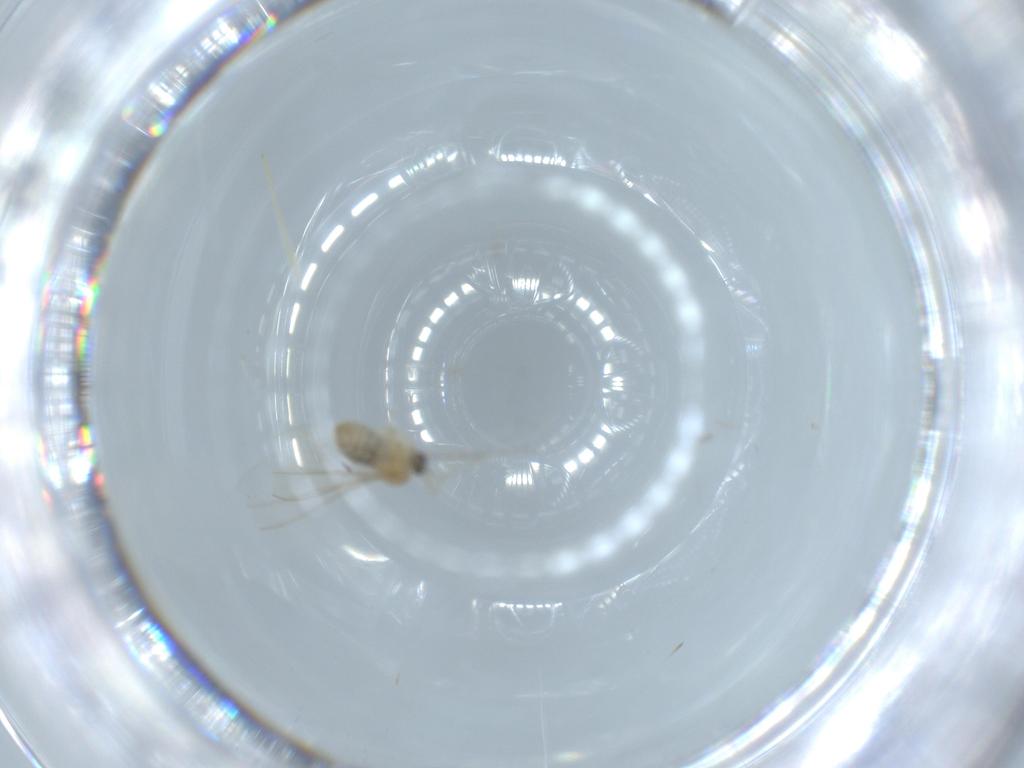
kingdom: Animalia
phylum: Arthropoda
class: Insecta
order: Diptera
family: Cecidomyiidae
